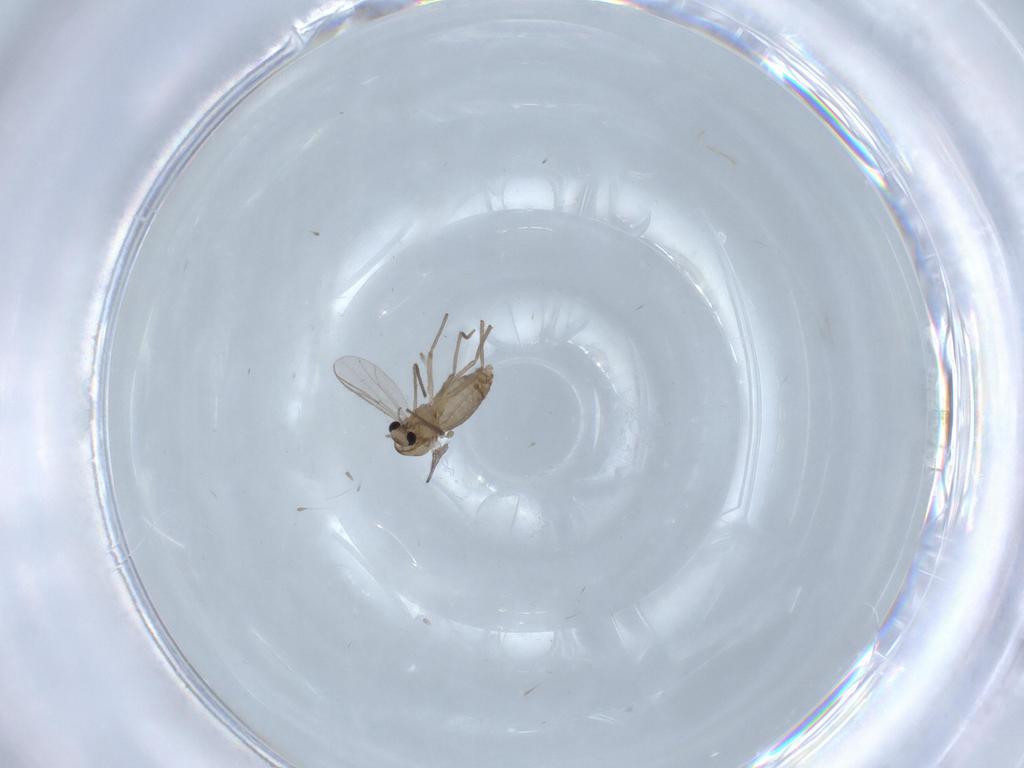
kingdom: Animalia
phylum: Arthropoda
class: Insecta
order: Diptera
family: Chironomidae
